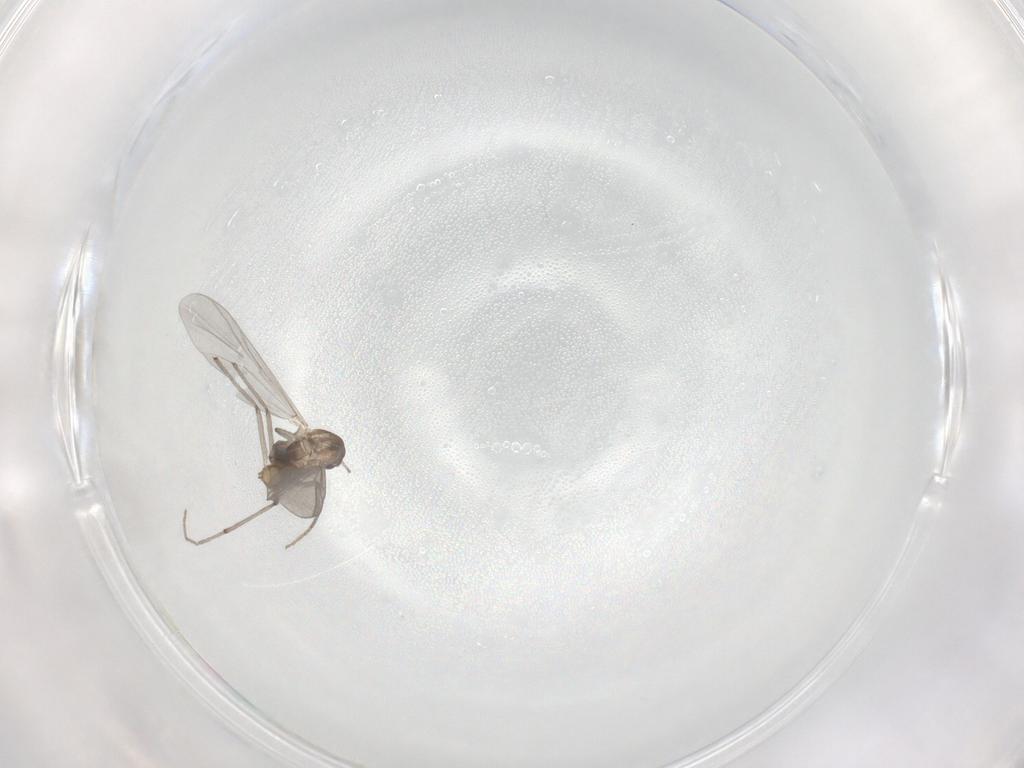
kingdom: Animalia
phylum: Arthropoda
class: Insecta
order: Diptera
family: Chironomidae
